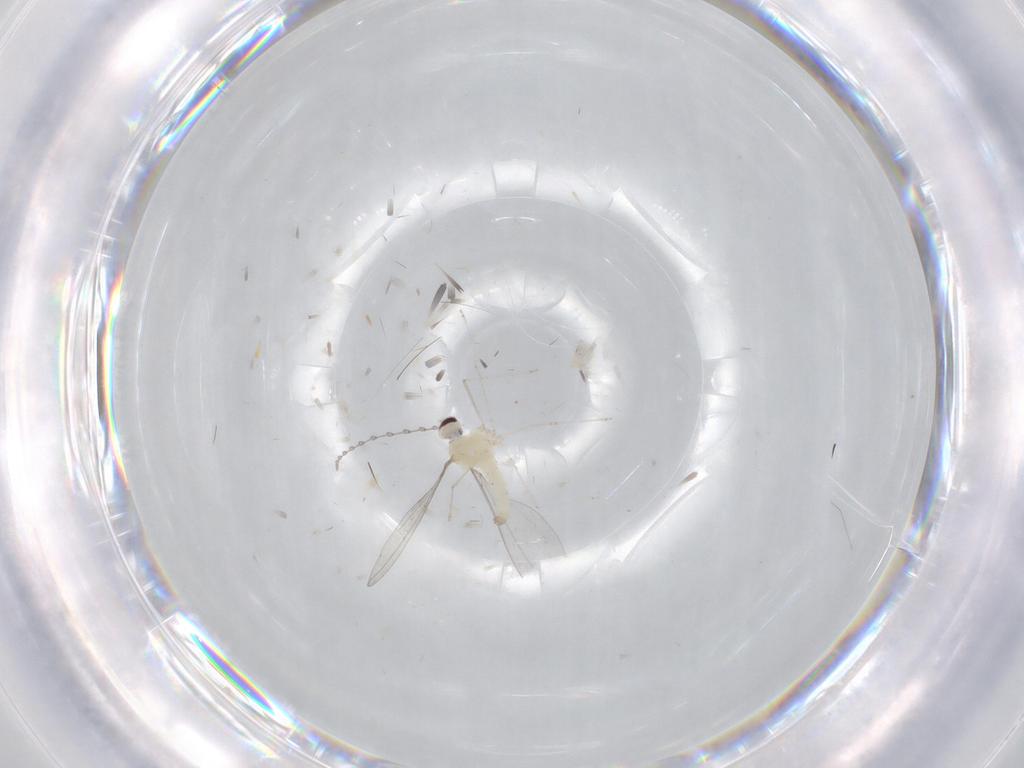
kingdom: Animalia
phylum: Arthropoda
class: Insecta
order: Diptera
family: Cecidomyiidae
